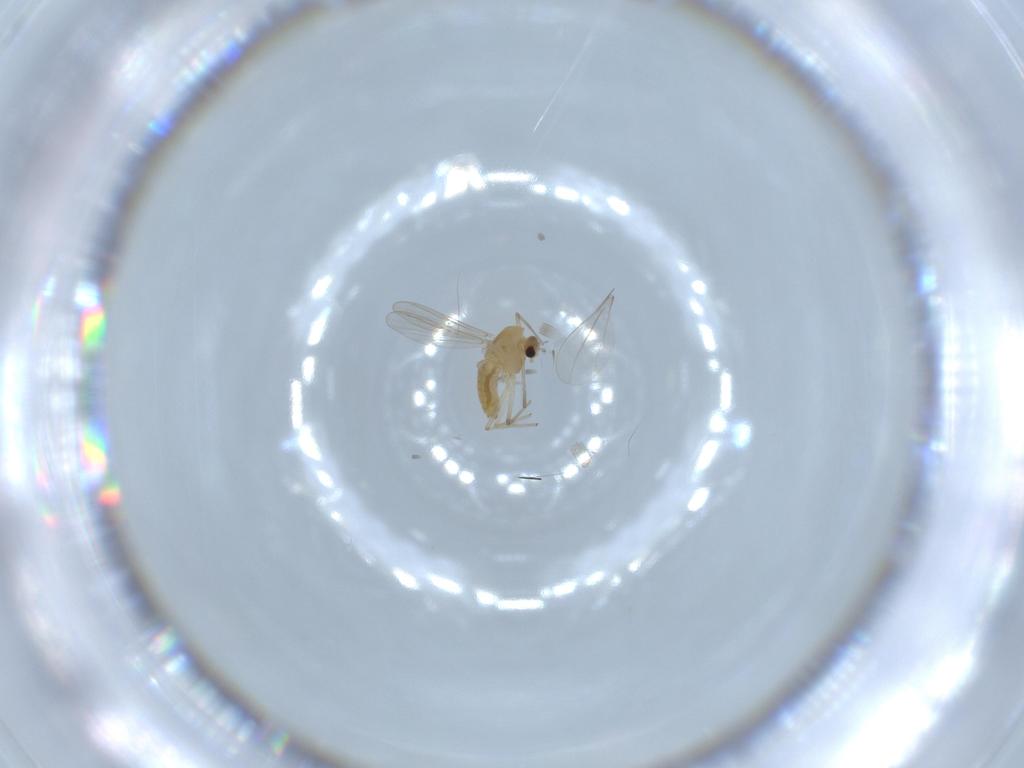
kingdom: Animalia
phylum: Arthropoda
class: Insecta
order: Diptera
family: Chironomidae
